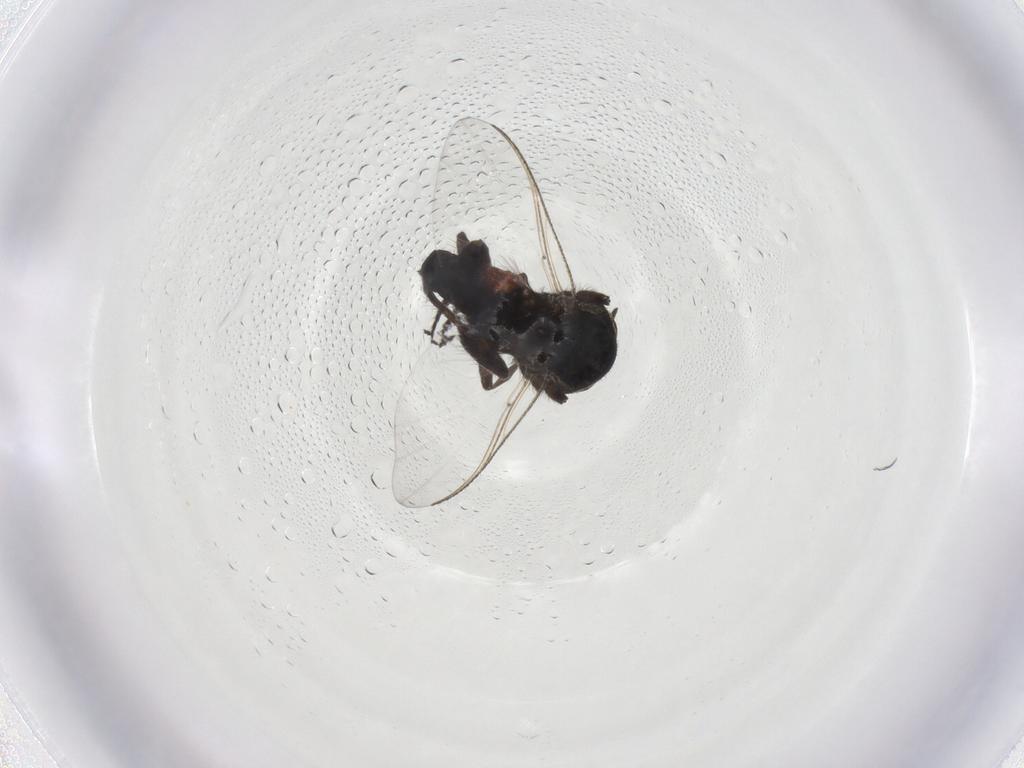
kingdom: Animalia
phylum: Arthropoda
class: Insecta
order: Diptera
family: Simuliidae
